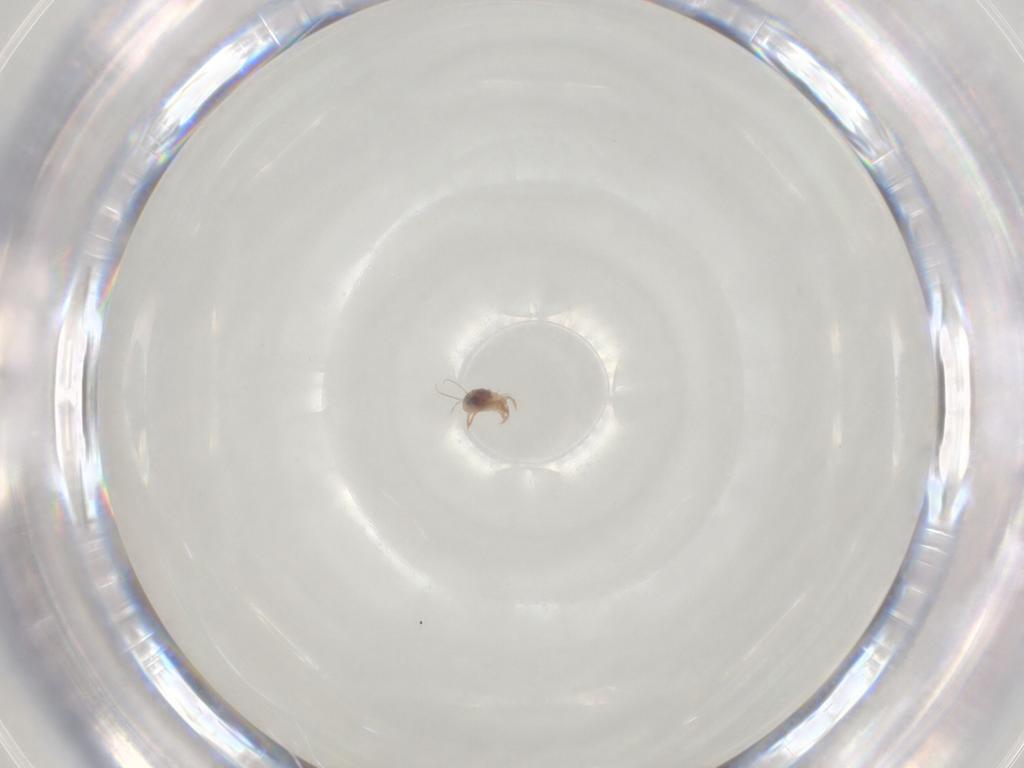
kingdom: Animalia
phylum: Arthropoda
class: Arachnida
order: Sarcoptiformes
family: Caloppiidae
